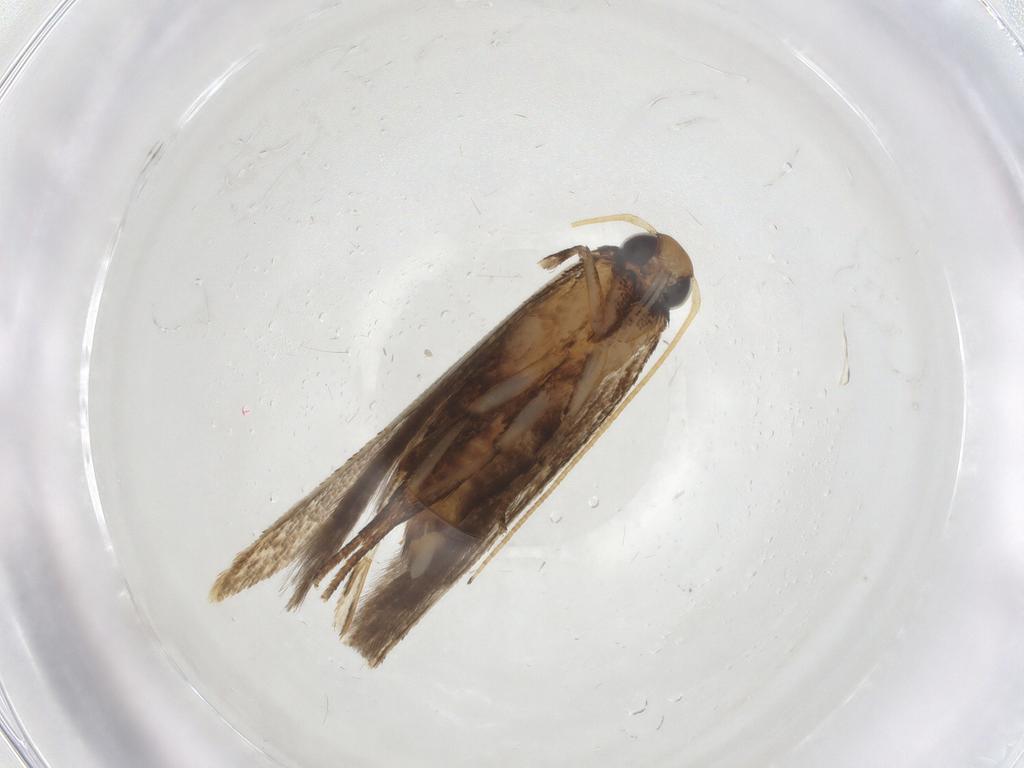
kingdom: Animalia
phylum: Arthropoda
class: Insecta
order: Lepidoptera
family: Gelechiidae
